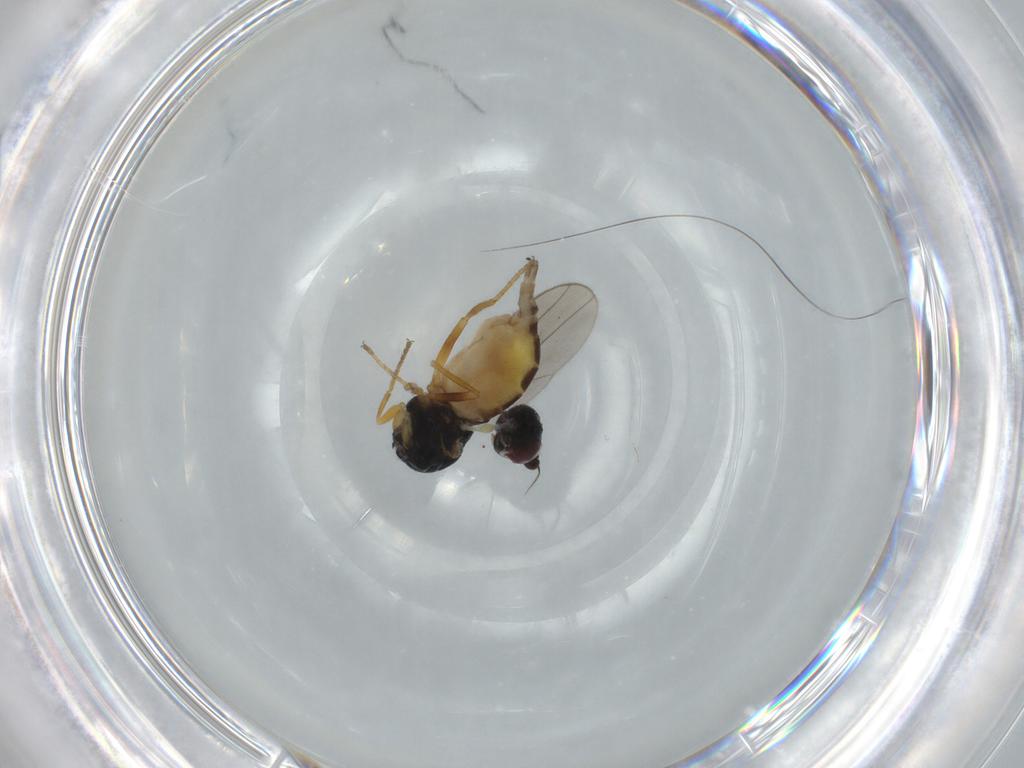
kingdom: Animalia
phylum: Arthropoda
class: Insecta
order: Diptera
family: Chloropidae
